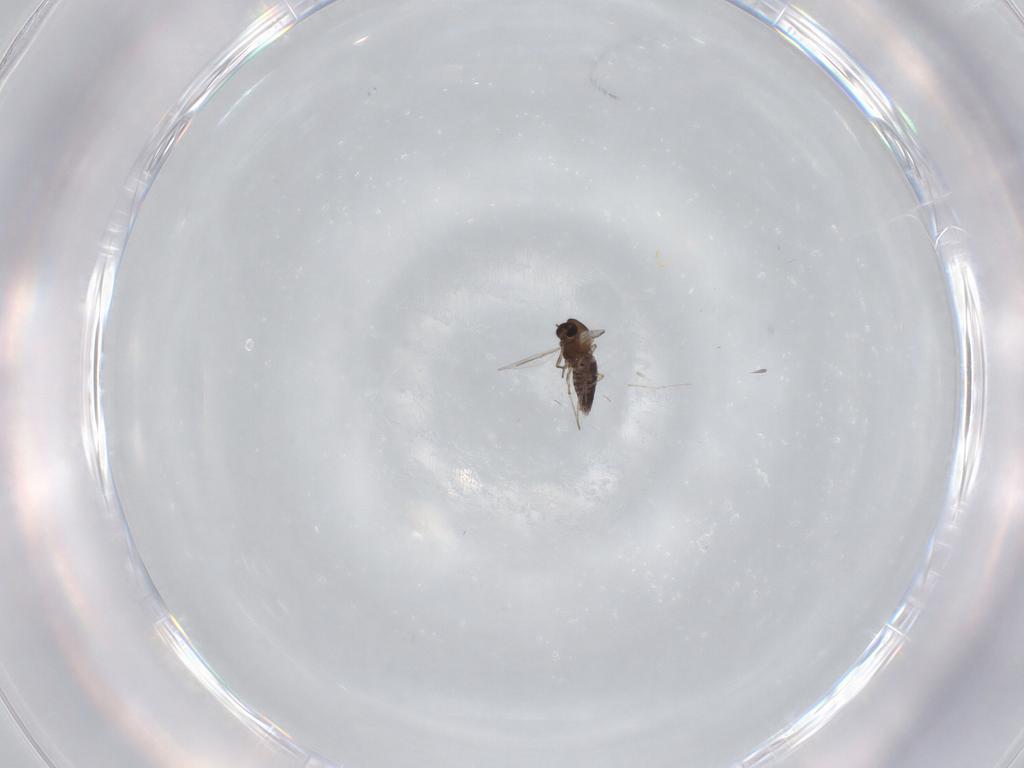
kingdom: Animalia
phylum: Arthropoda
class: Insecta
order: Diptera
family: Chironomidae
